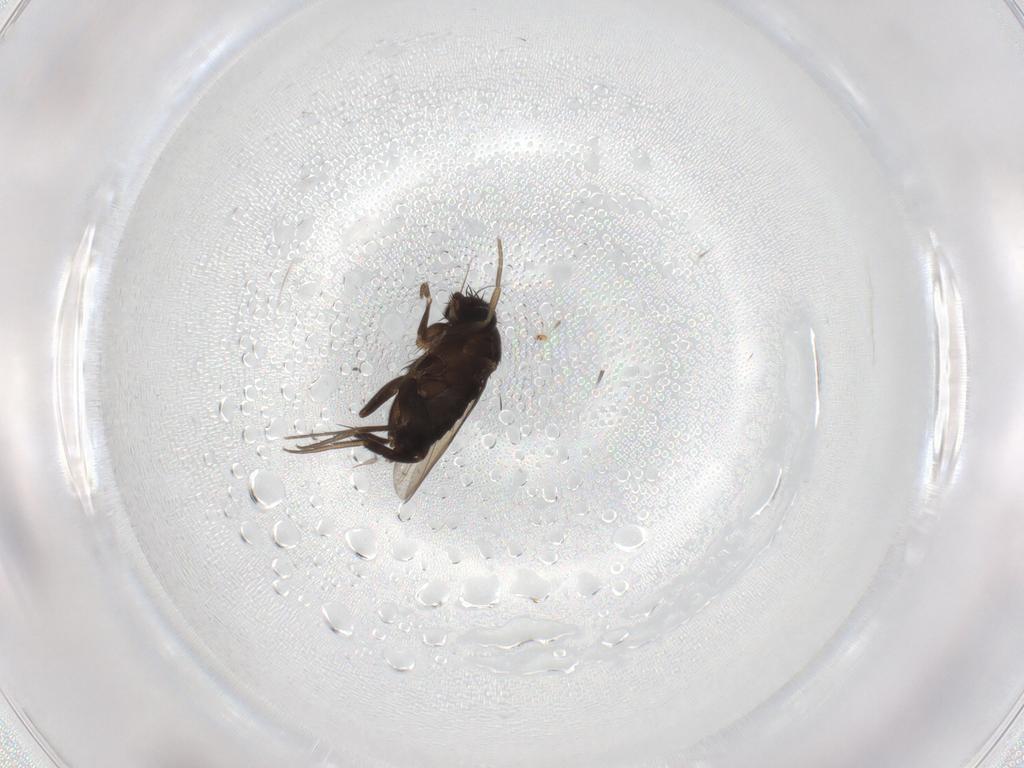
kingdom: Animalia
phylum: Arthropoda
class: Insecta
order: Diptera
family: Phoridae
